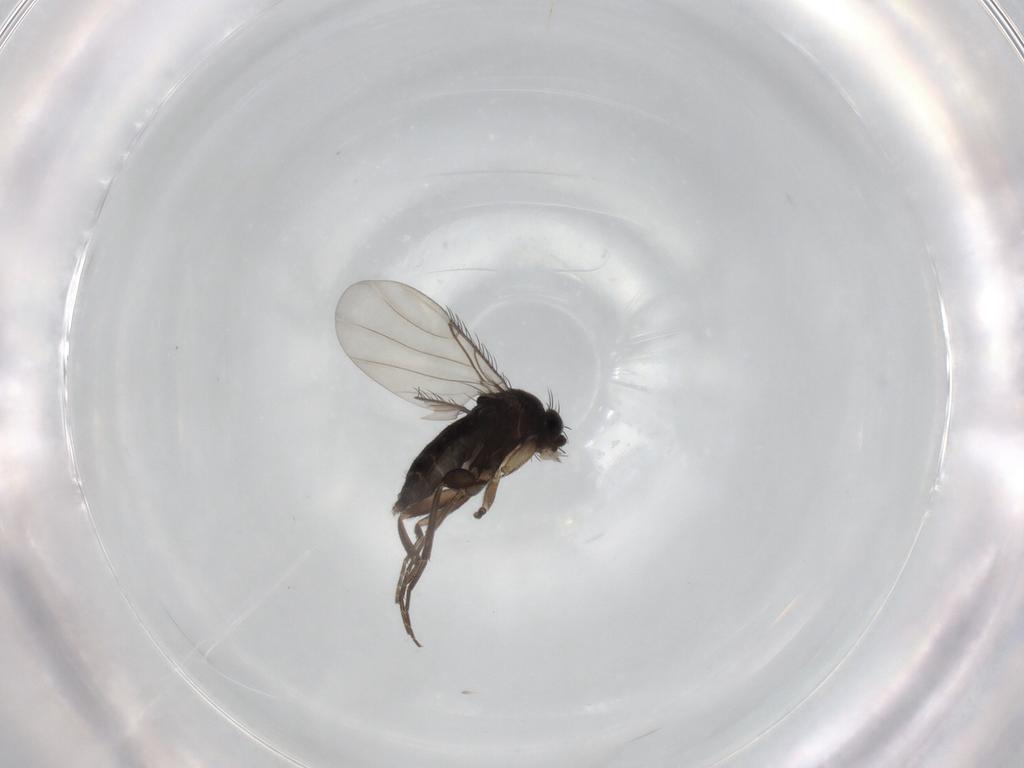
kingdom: Animalia
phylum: Arthropoda
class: Insecta
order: Diptera
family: Phoridae
